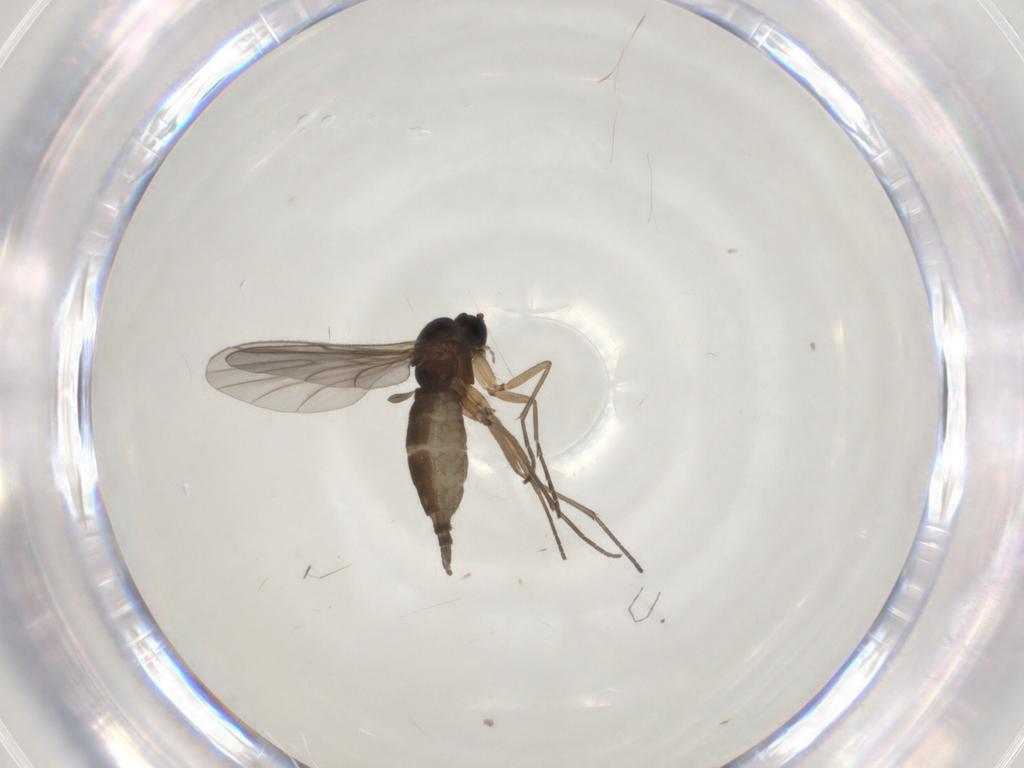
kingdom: Animalia
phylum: Arthropoda
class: Insecta
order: Diptera
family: Sciaridae
